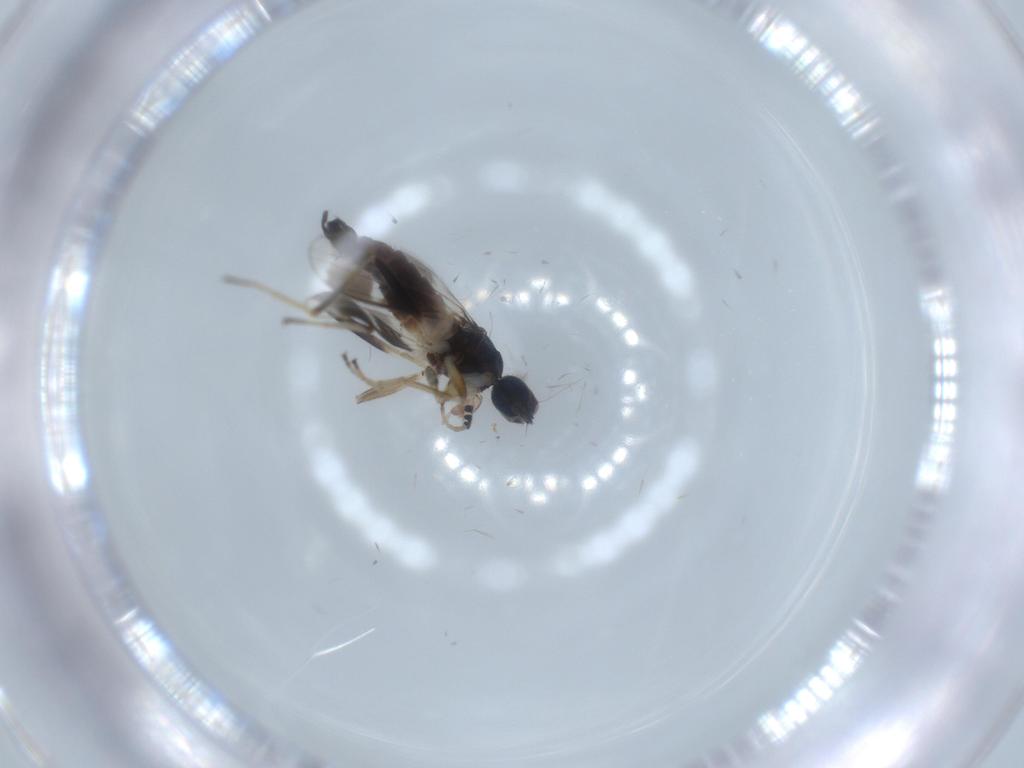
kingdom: Animalia
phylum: Arthropoda
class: Insecta
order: Diptera
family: Hybotidae
